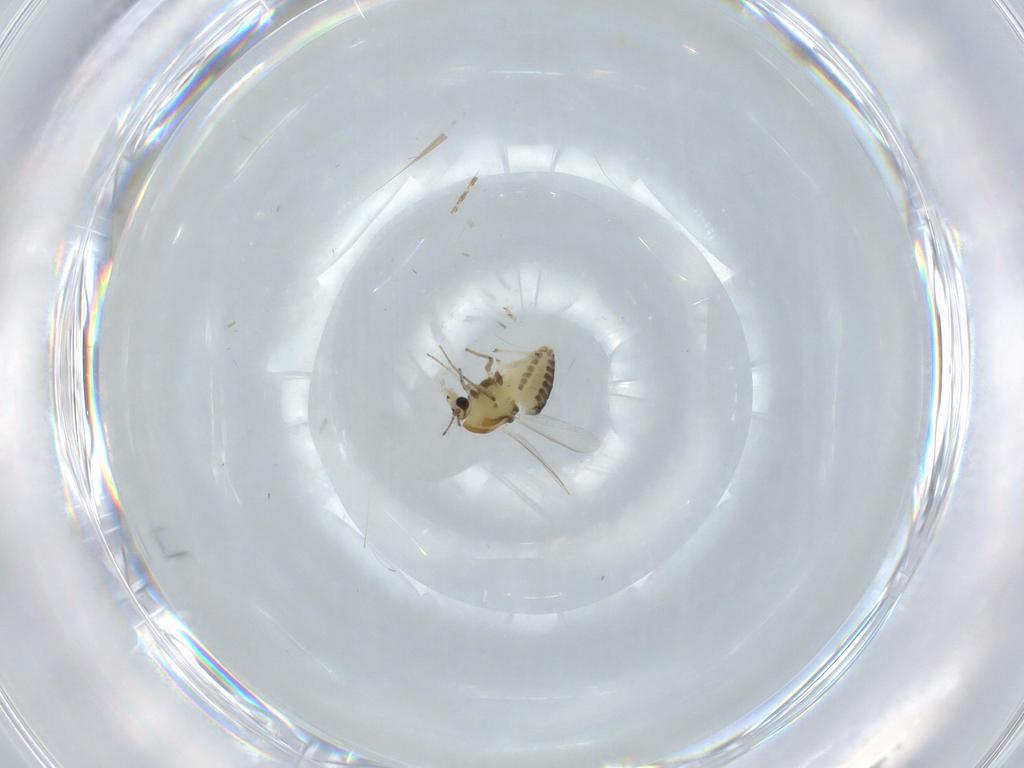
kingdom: Animalia
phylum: Arthropoda
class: Insecta
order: Diptera
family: Chironomidae
